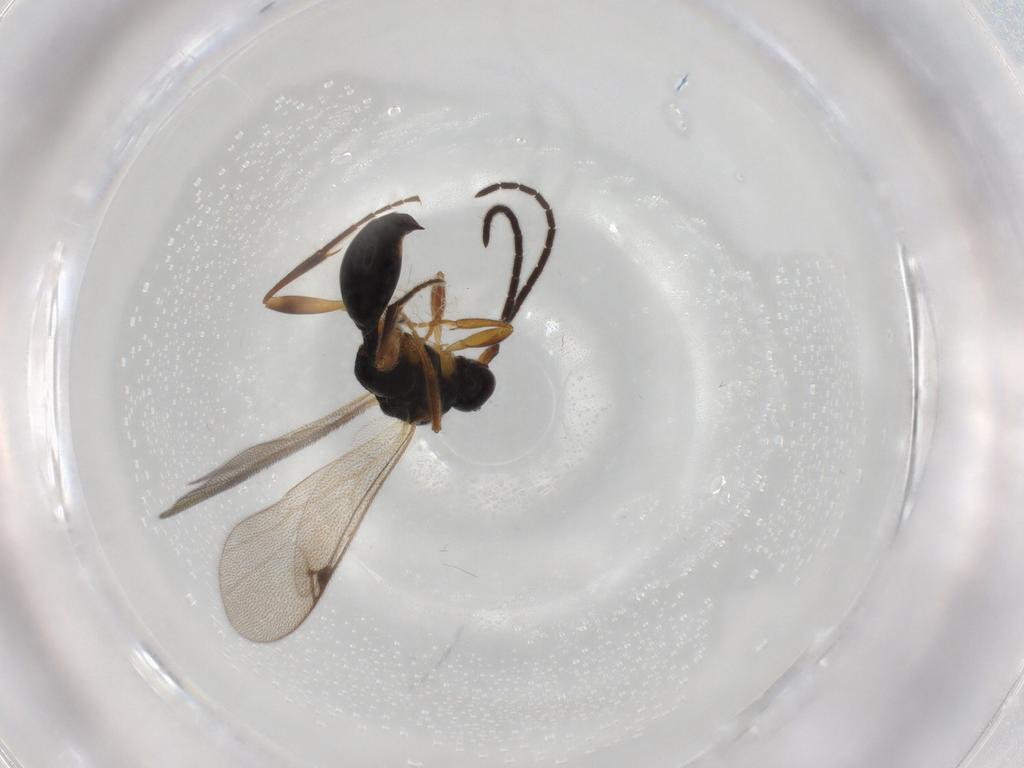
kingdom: Animalia
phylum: Arthropoda
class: Insecta
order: Hymenoptera
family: Proctotrupidae
